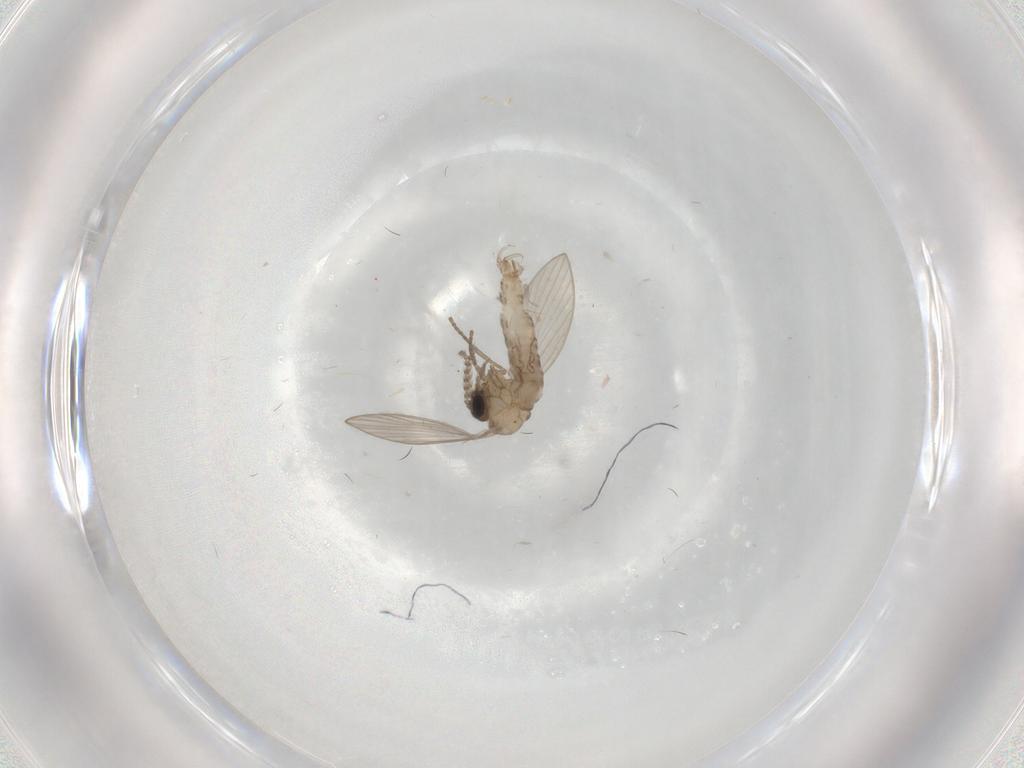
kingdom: Animalia
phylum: Arthropoda
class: Insecta
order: Diptera
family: Psychodidae
